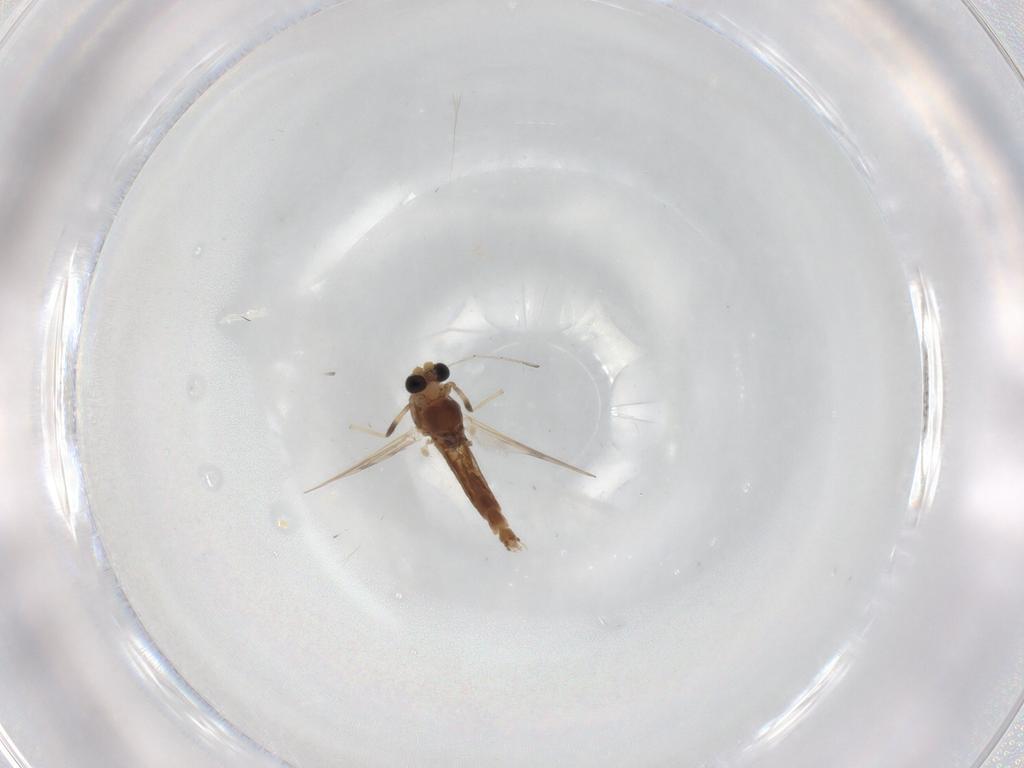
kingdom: Animalia
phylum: Arthropoda
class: Insecta
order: Diptera
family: Chironomidae
